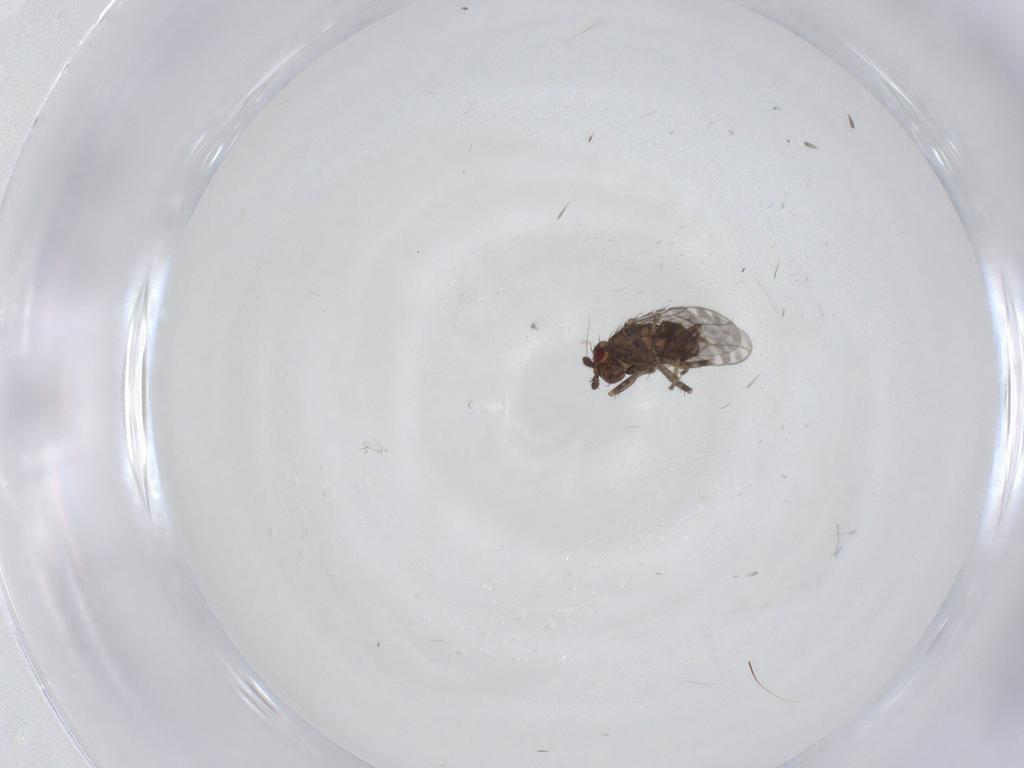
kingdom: Animalia
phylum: Arthropoda
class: Insecta
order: Diptera
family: Sphaeroceridae
